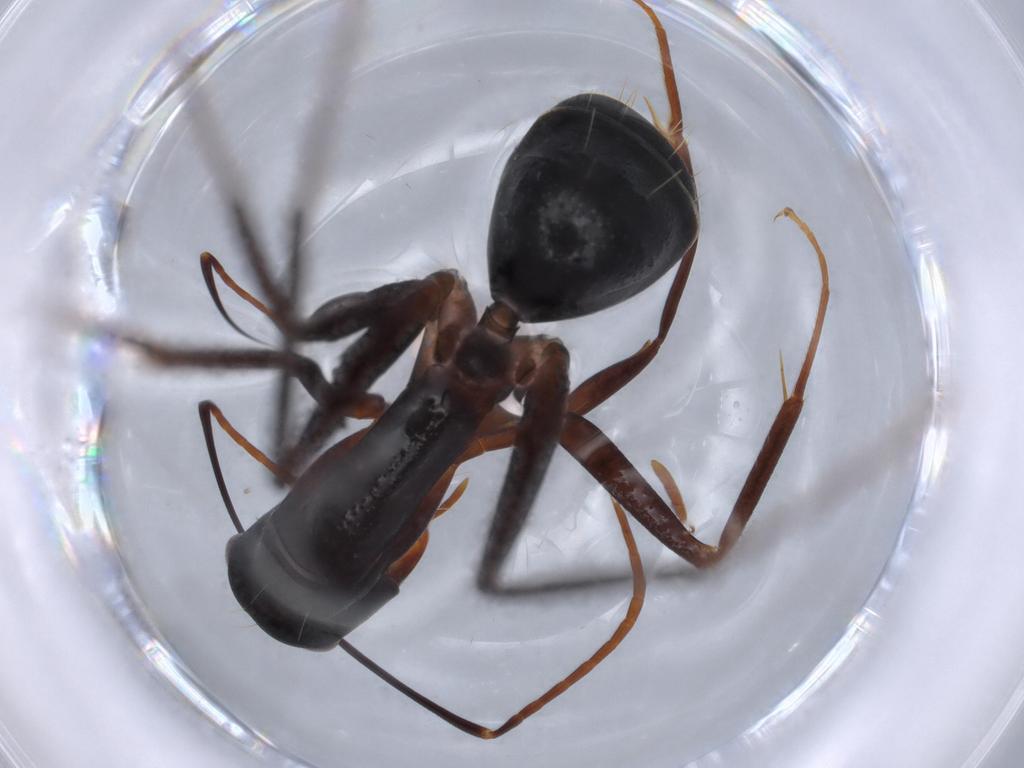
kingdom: Animalia
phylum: Arthropoda
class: Insecta
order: Hymenoptera
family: Formicidae
